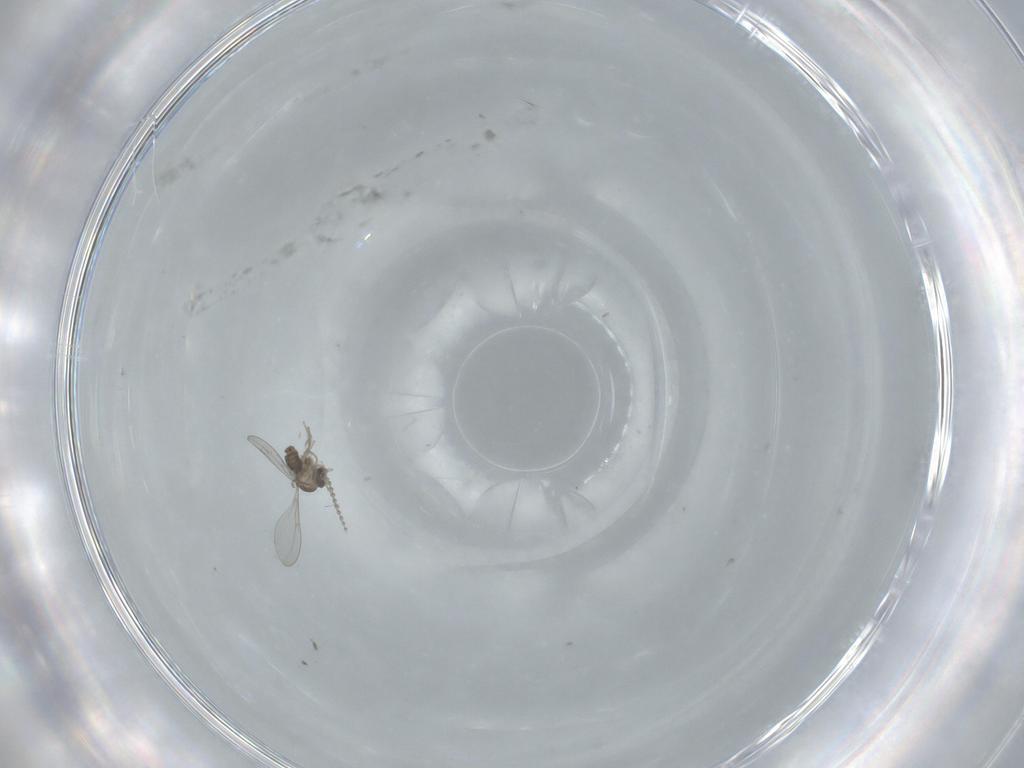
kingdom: Animalia
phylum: Arthropoda
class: Insecta
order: Diptera
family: Cecidomyiidae
